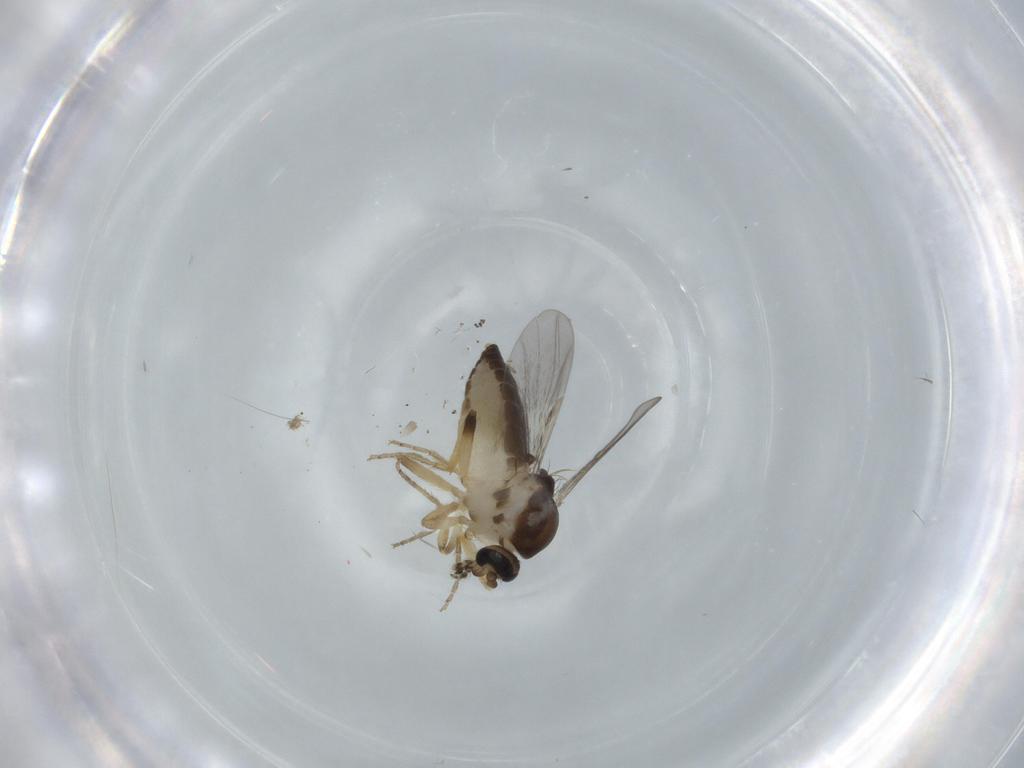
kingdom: Animalia
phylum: Arthropoda
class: Insecta
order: Diptera
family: Ceratopogonidae
